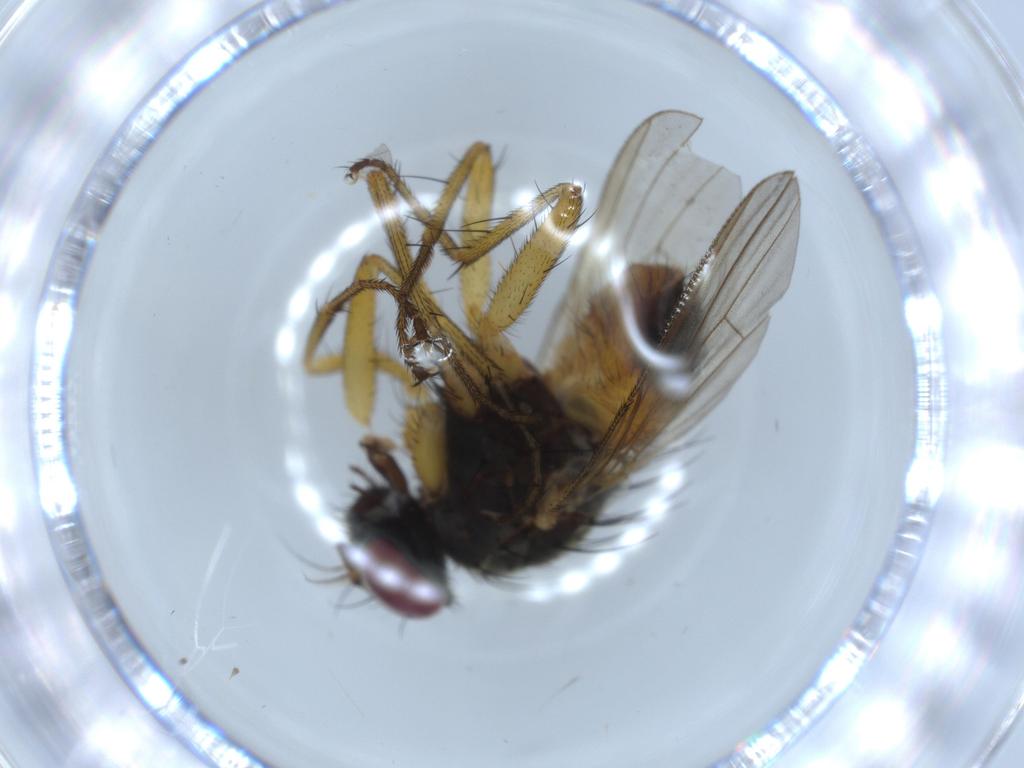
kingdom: Animalia
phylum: Arthropoda
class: Insecta
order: Diptera
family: Muscidae
